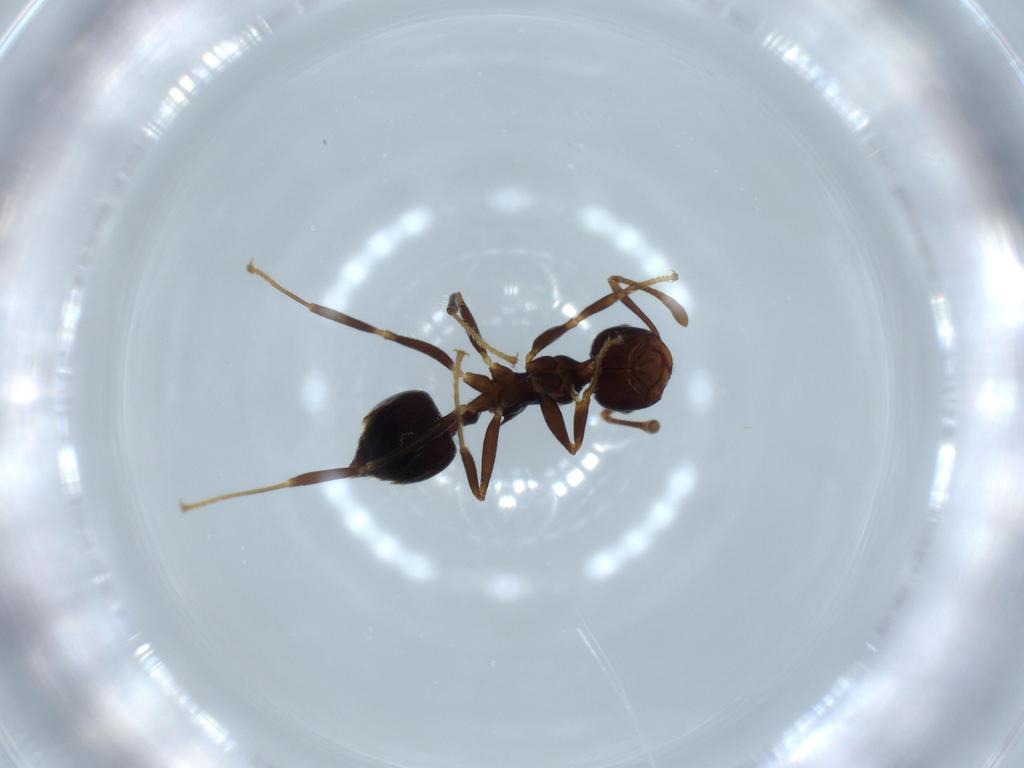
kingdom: Animalia
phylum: Arthropoda
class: Insecta
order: Hymenoptera
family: Formicidae
